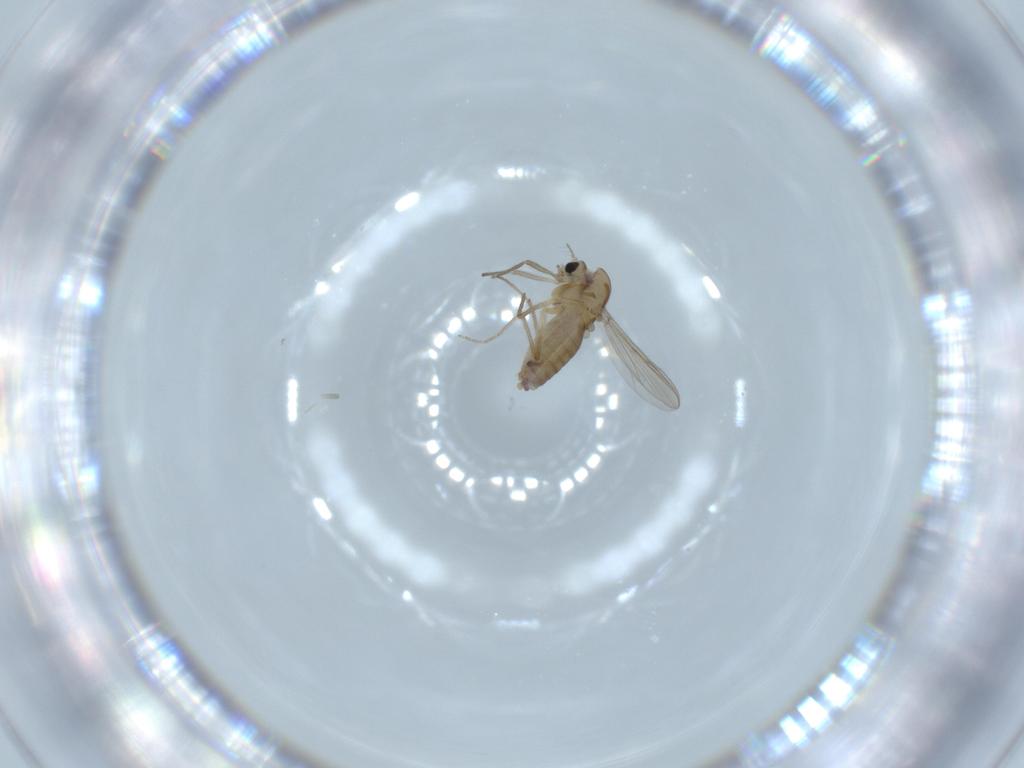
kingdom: Animalia
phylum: Arthropoda
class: Insecta
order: Diptera
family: Chironomidae
